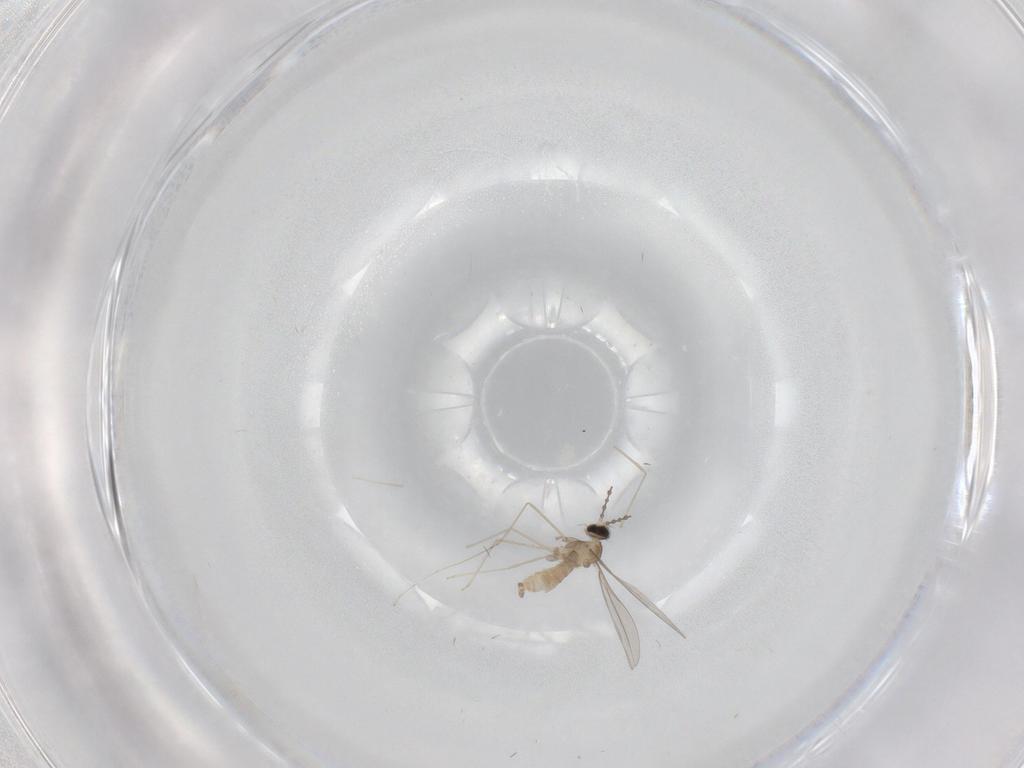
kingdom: Animalia
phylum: Arthropoda
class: Insecta
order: Diptera
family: Cecidomyiidae
